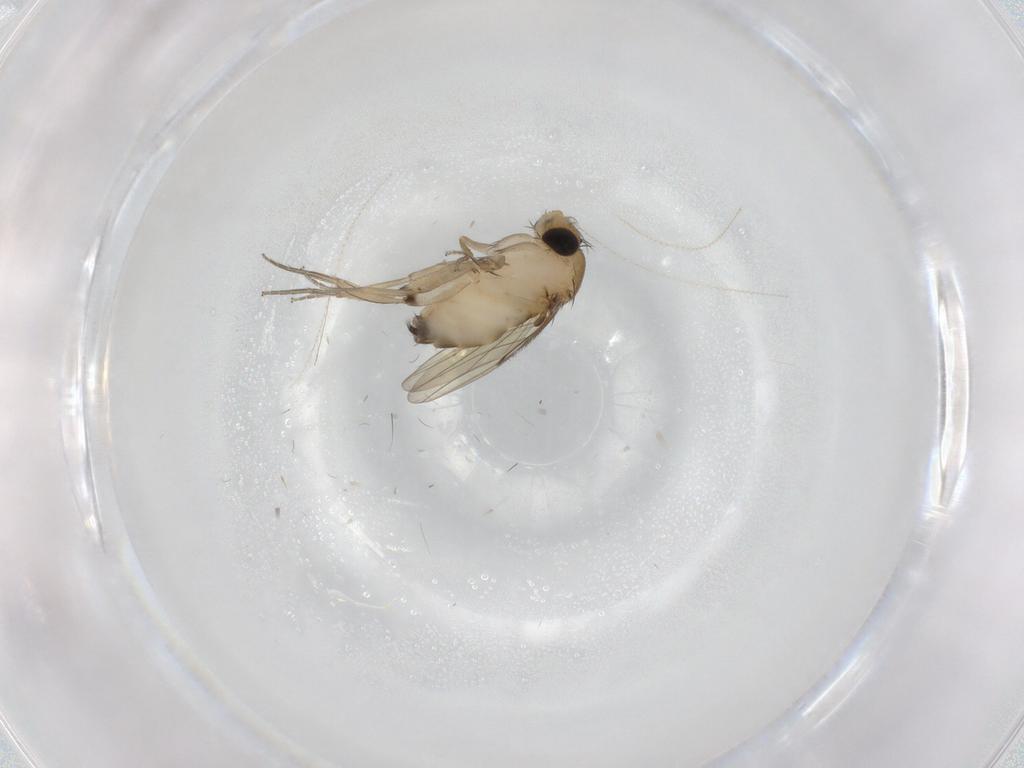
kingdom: Animalia
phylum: Arthropoda
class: Insecta
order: Diptera
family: Phoridae
